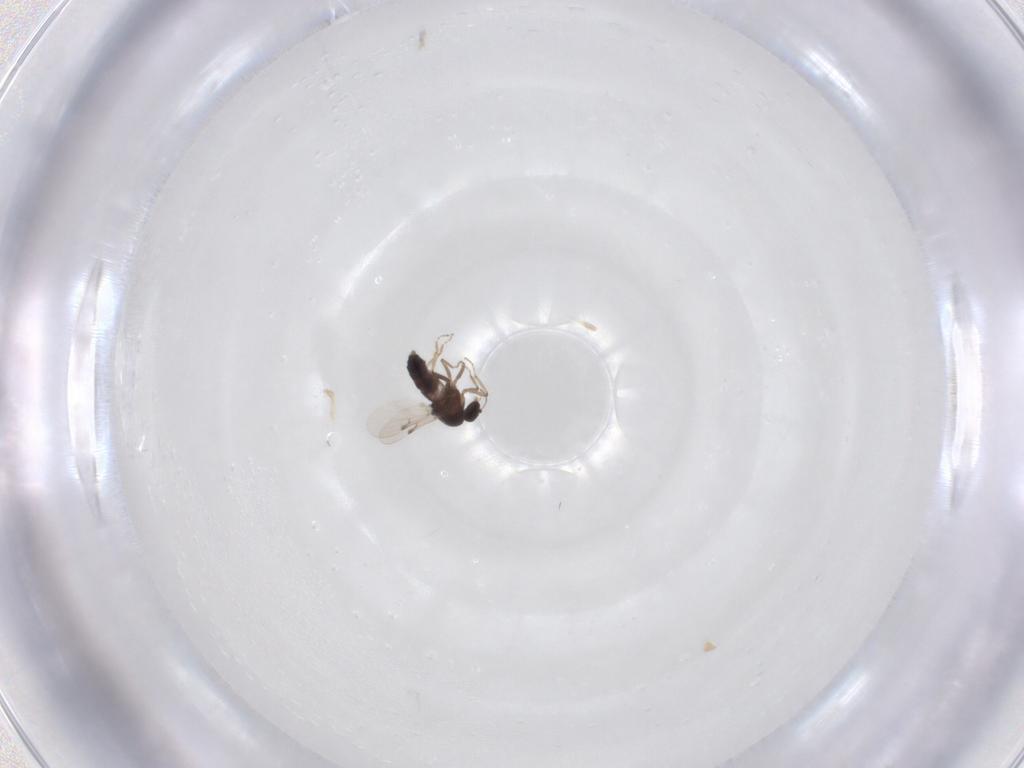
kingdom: Animalia
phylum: Arthropoda
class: Insecta
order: Diptera
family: Ceratopogonidae
